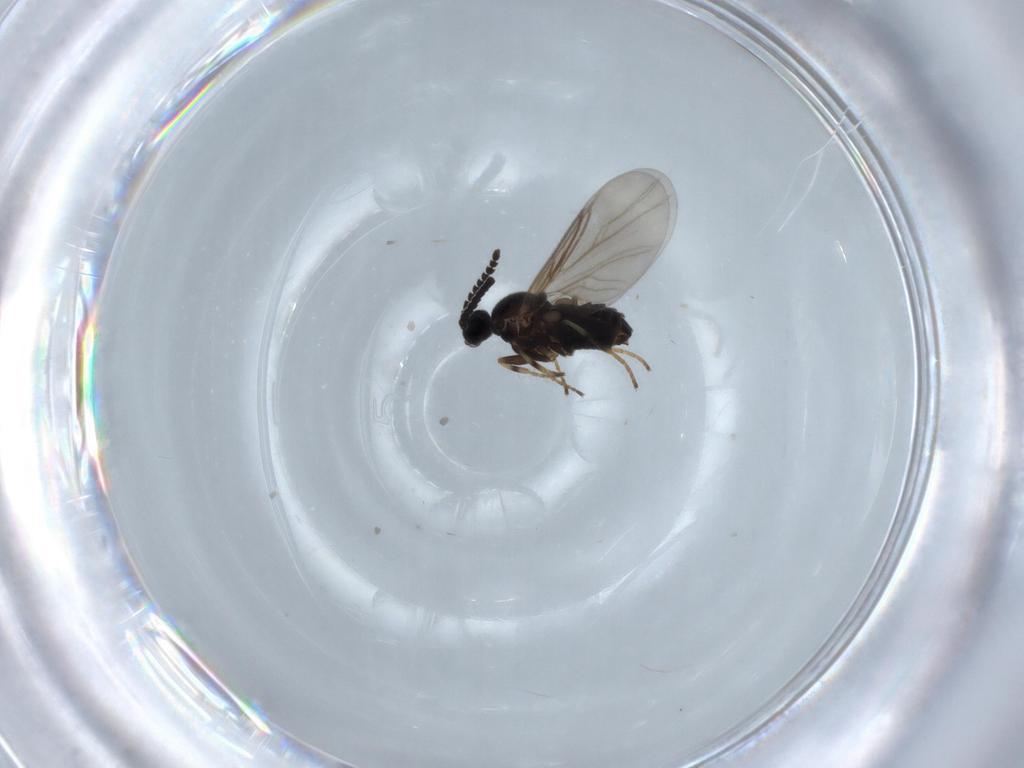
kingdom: Animalia
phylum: Arthropoda
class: Insecta
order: Diptera
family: Scatopsidae
